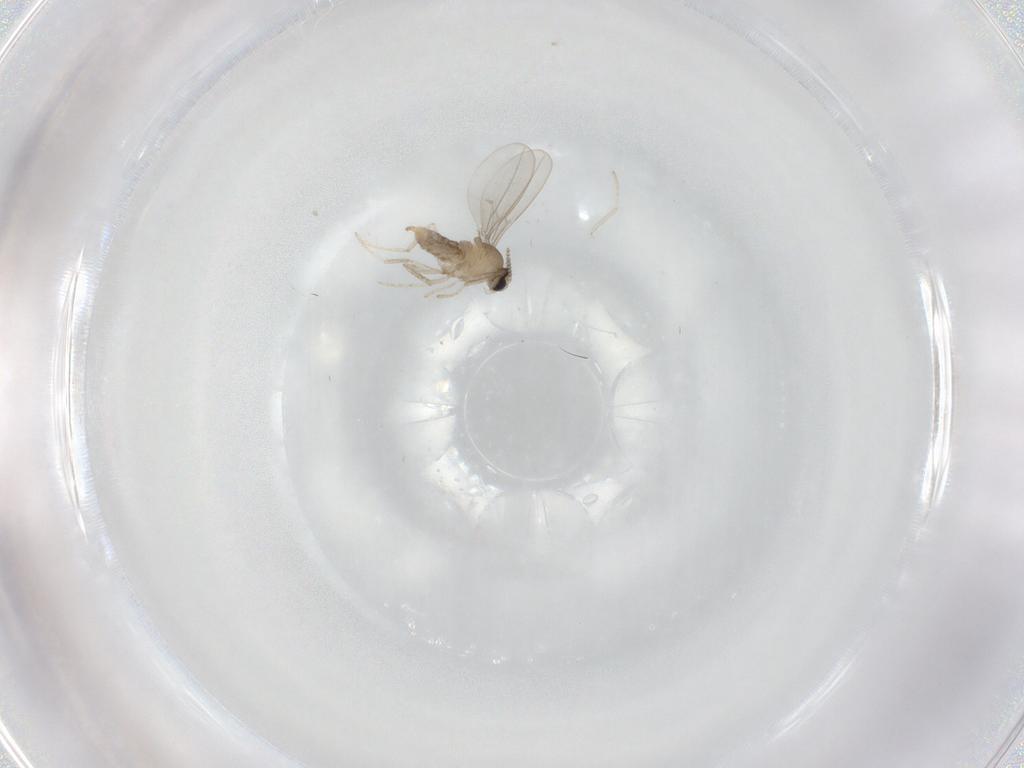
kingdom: Animalia
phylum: Arthropoda
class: Insecta
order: Diptera
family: Cecidomyiidae
